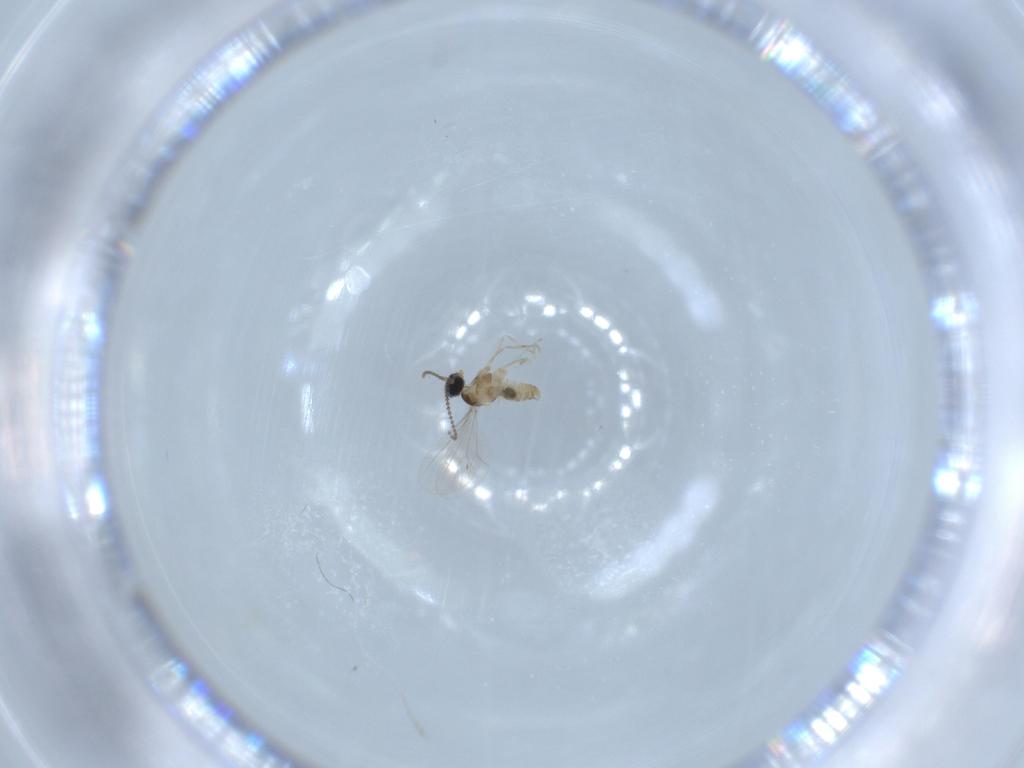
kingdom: Animalia
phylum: Arthropoda
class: Insecta
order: Diptera
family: Cecidomyiidae
